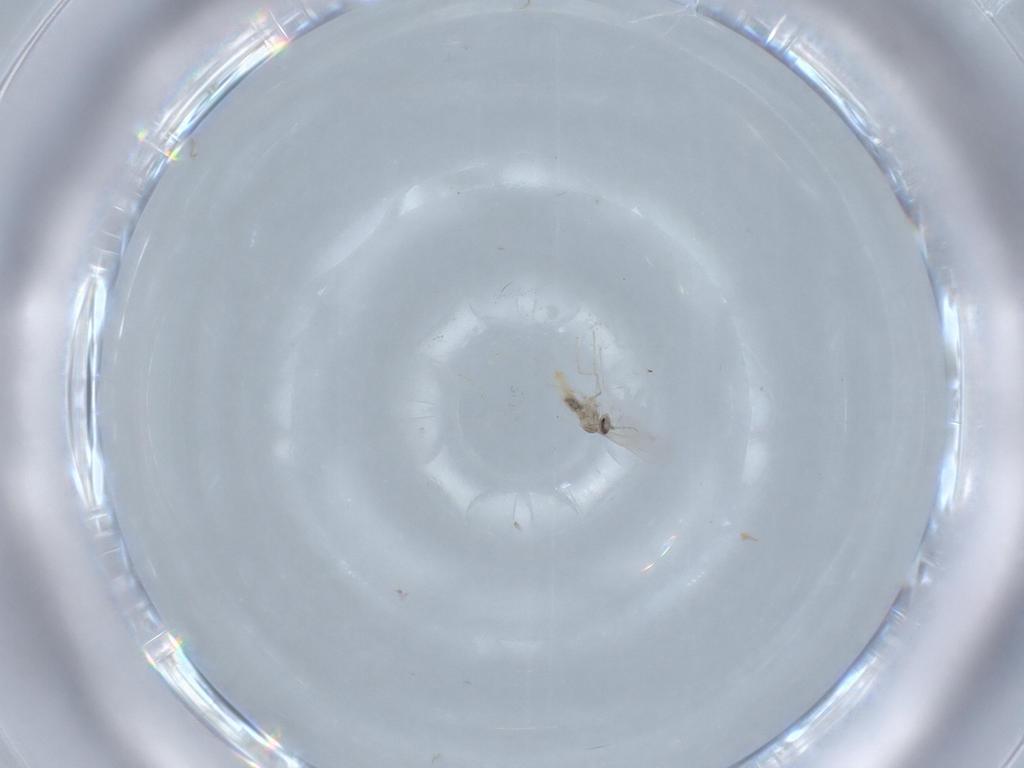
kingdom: Animalia
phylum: Arthropoda
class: Insecta
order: Diptera
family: Cecidomyiidae
